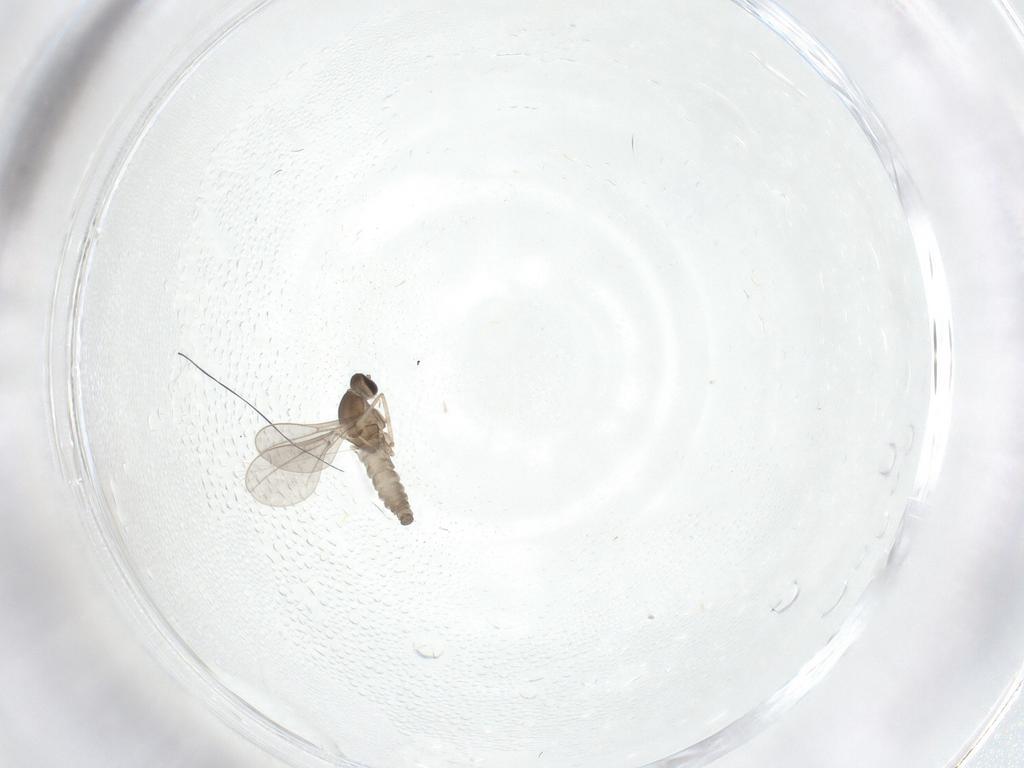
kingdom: Animalia
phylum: Arthropoda
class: Insecta
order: Diptera
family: Cecidomyiidae
